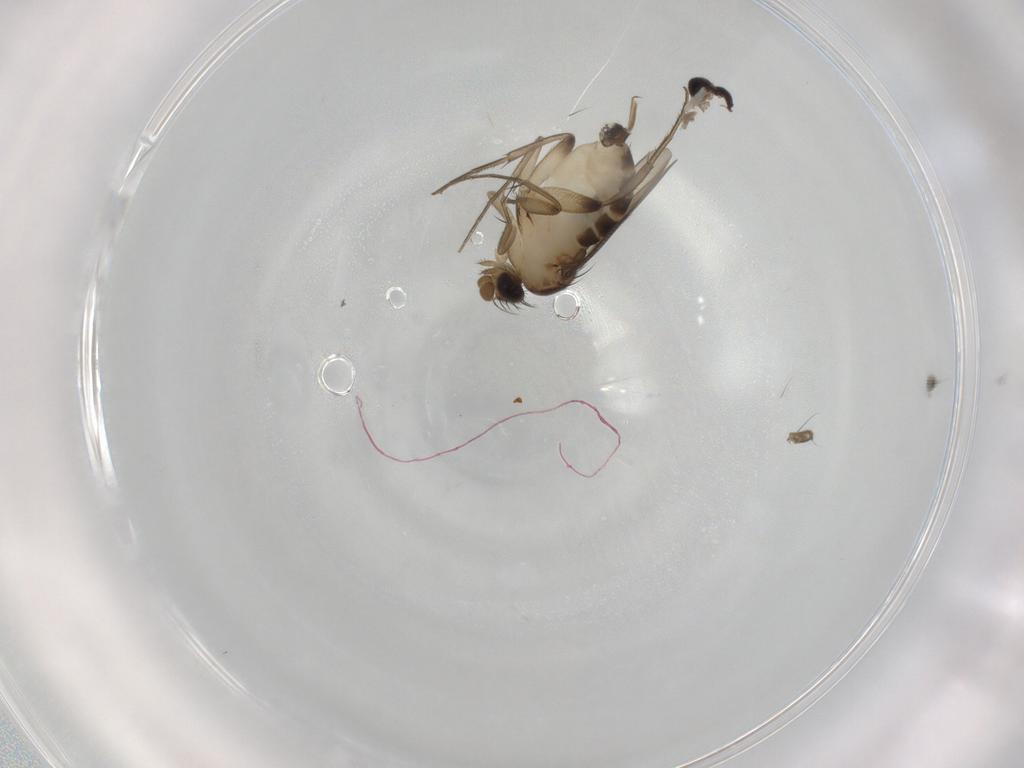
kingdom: Animalia
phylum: Arthropoda
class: Insecta
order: Diptera
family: Phoridae
